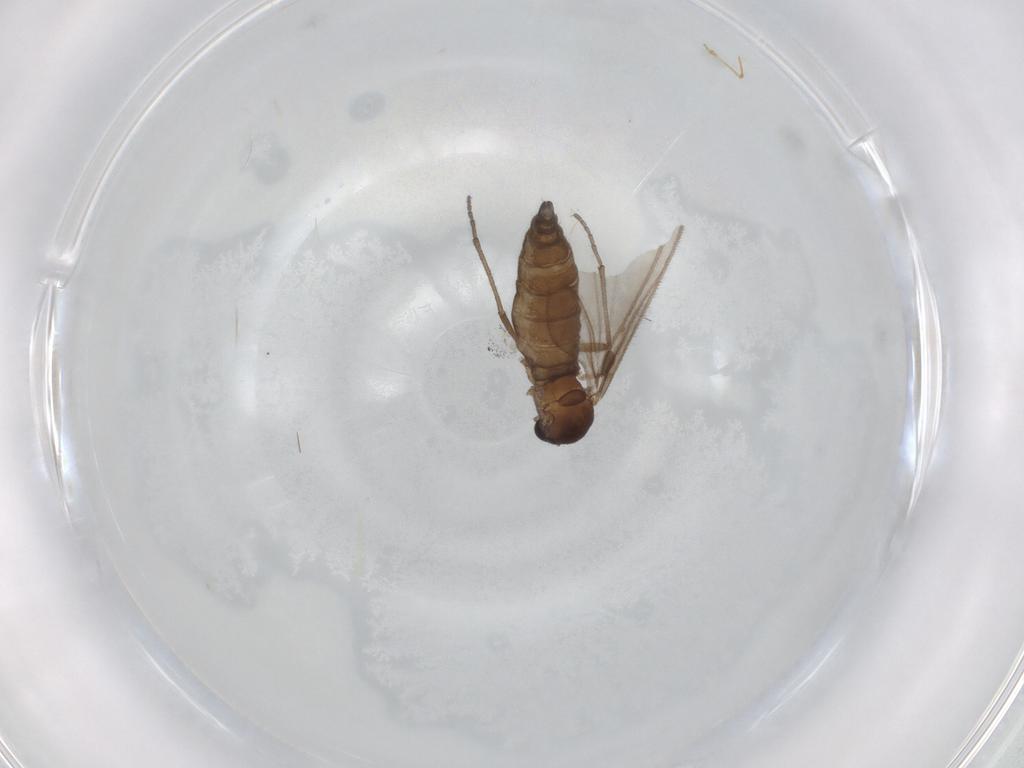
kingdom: Animalia
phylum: Arthropoda
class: Insecta
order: Diptera
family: Sciaridae
